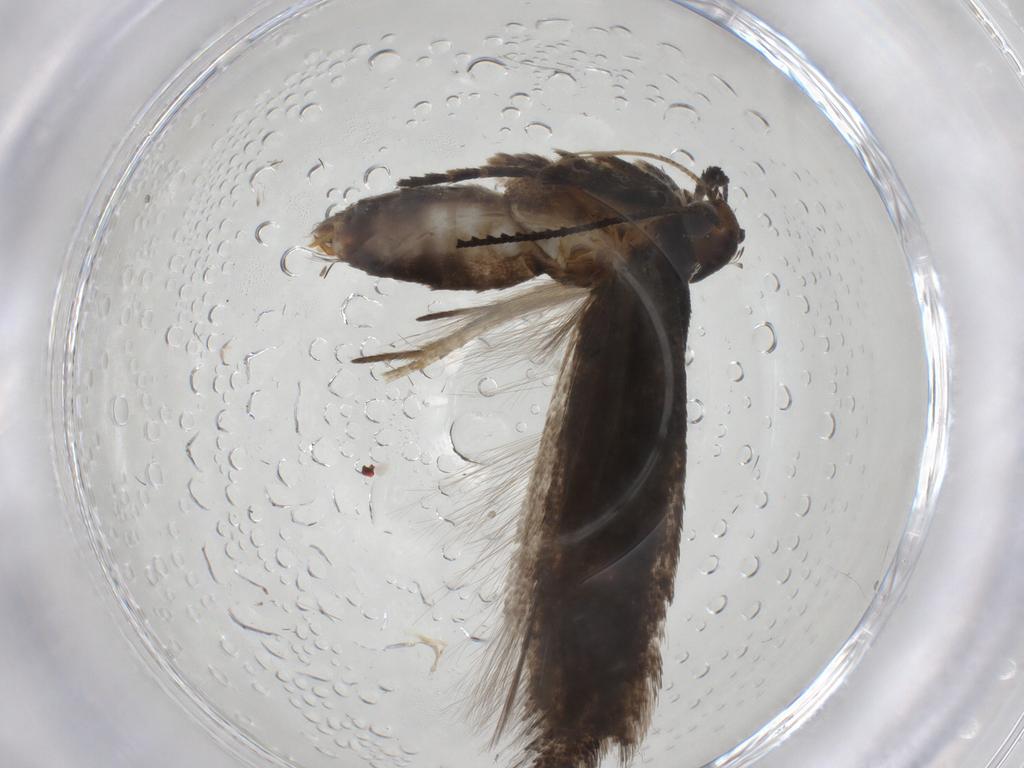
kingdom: Animalia
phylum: Arthropoda
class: Insecta
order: Lepidoptera
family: Gelechiidae
